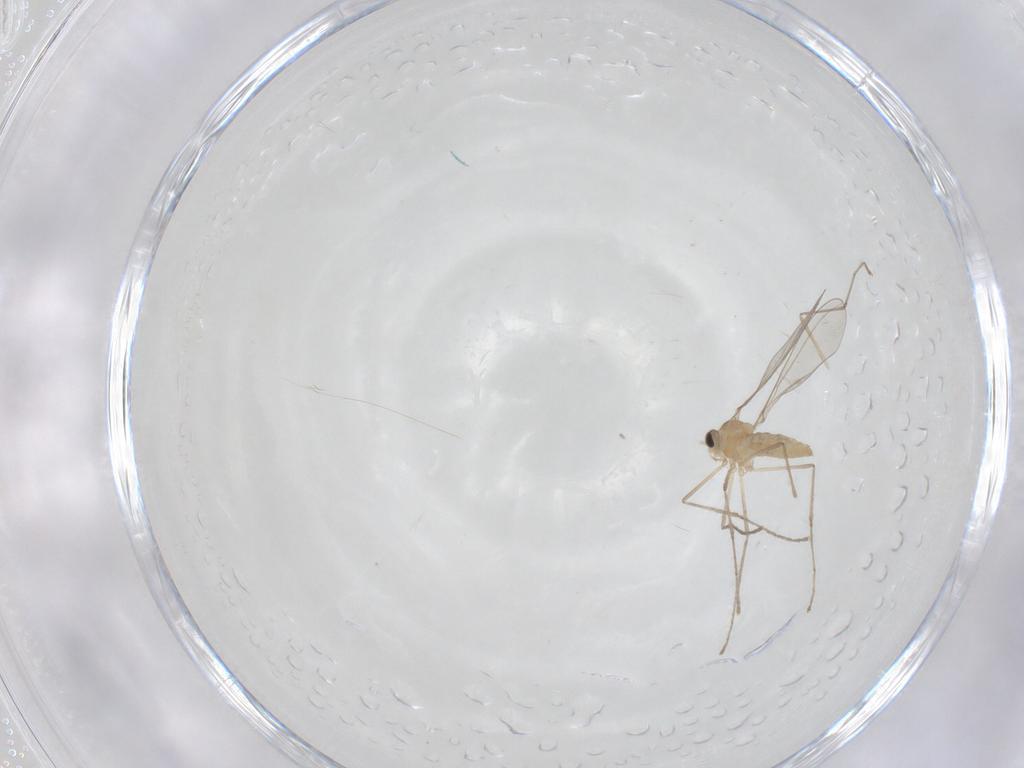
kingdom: Animalia
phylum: Arthropoda
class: Insecta
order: Diptera
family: Cecidomyiidae
